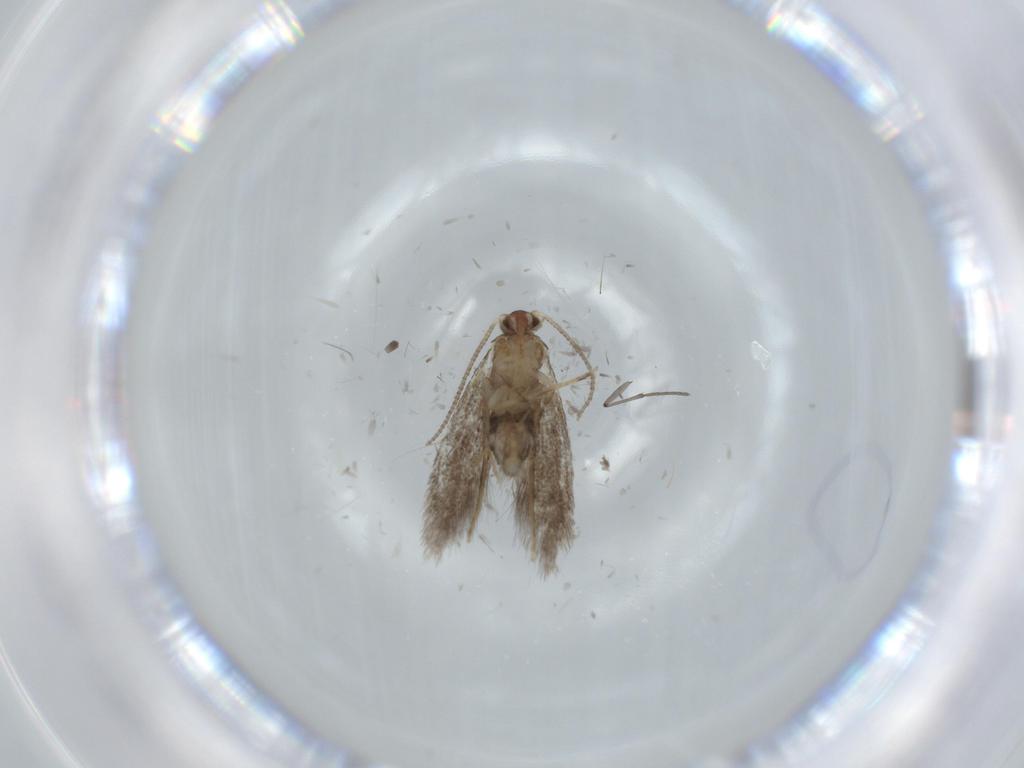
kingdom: Animalia
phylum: Arthropoda
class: Insecta
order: Lepidoptera
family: Tineidae
